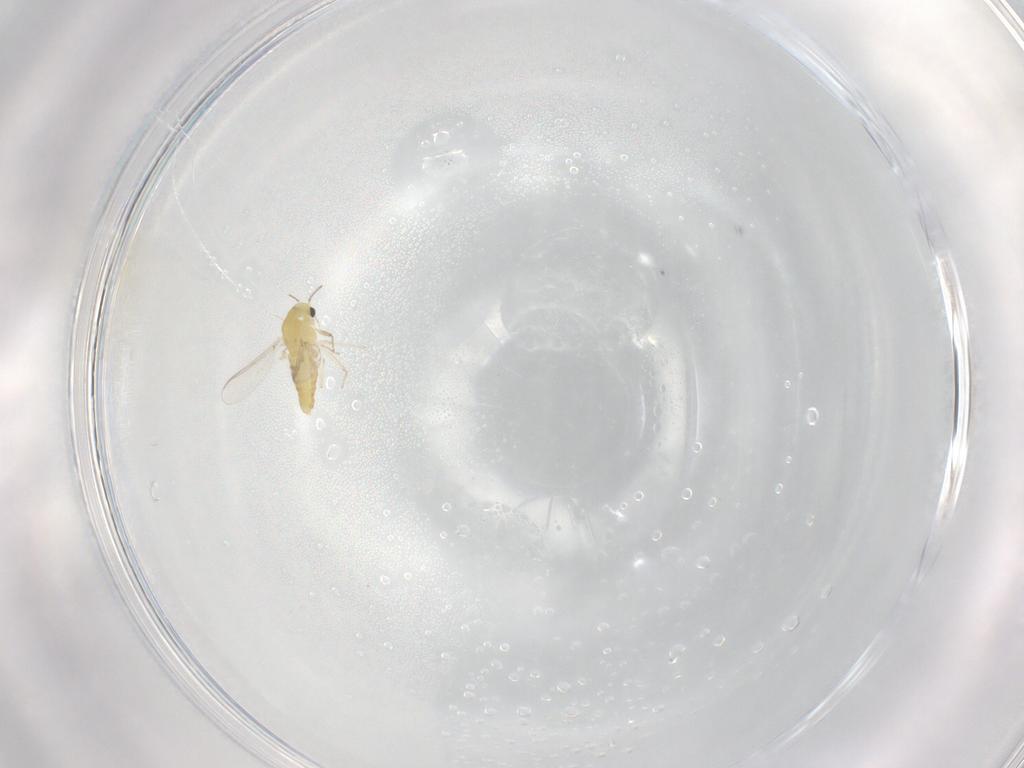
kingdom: Animalia
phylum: Arthropoda
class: Insecta
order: Diptera
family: Chironomidae
